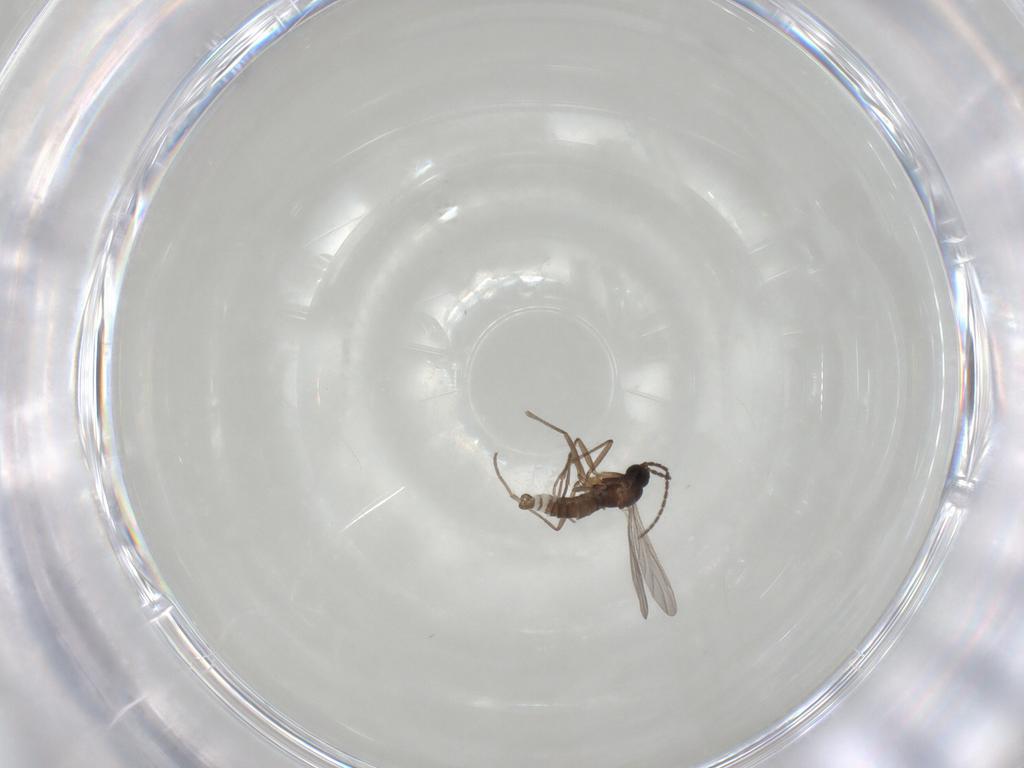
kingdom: Animalia
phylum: Arthropoda
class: Insecta
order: Diptera
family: Sciaridae
